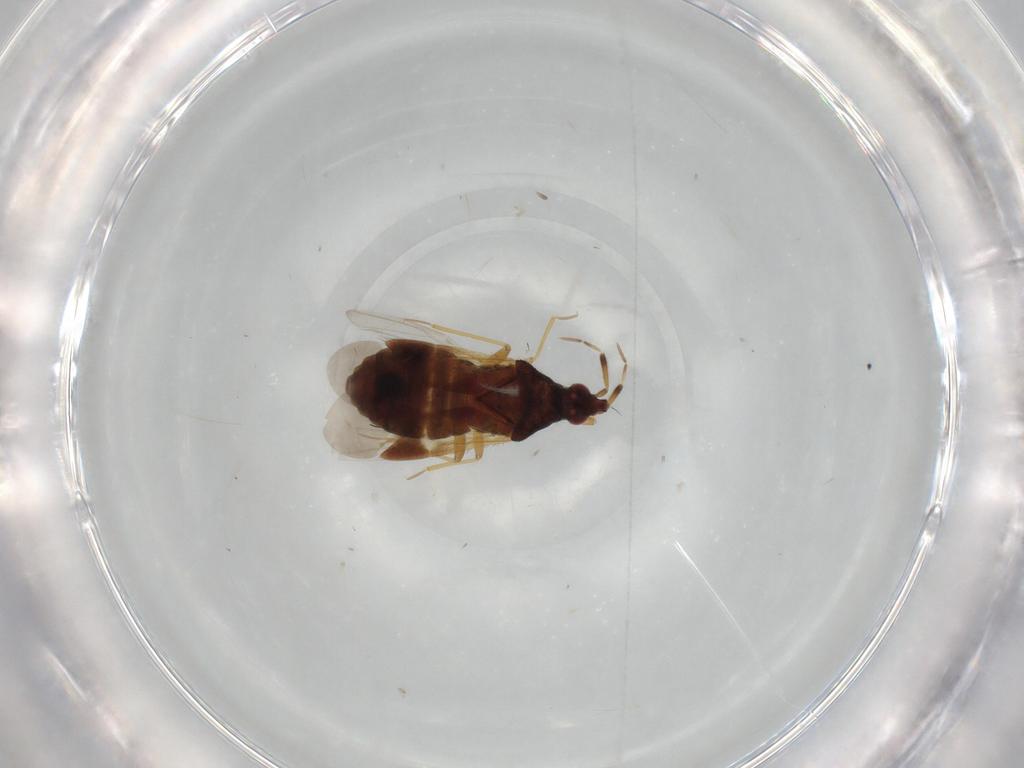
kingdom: Animalia
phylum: Arthropoda
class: Insecta
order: Hemiptera
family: Anthocoridae
